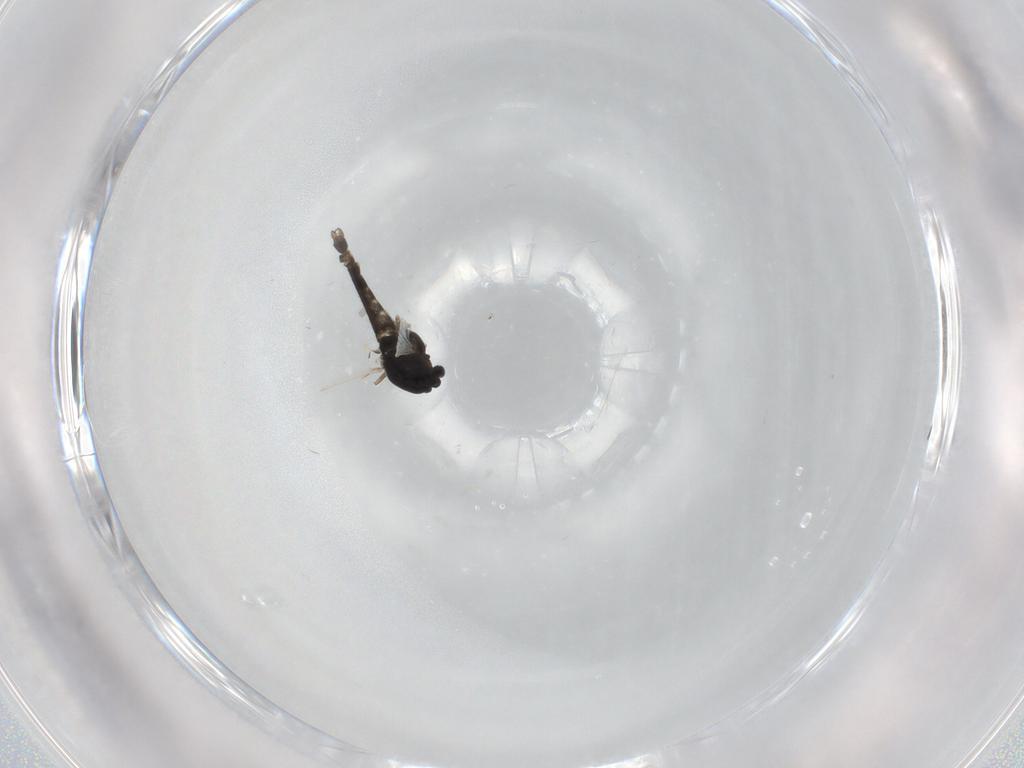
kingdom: Animalia
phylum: Arthropoda
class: Insecta
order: Diptera
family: Chironomidae
